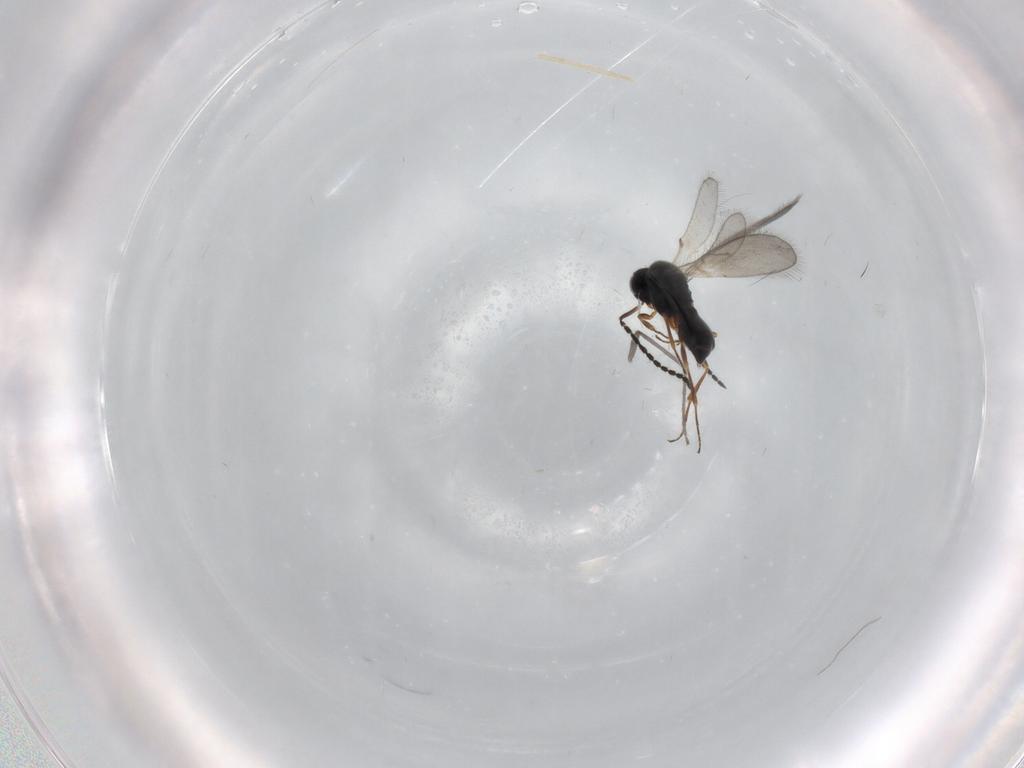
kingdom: Animalia
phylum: Arthropoda
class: Insecta
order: Hymenoptera
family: Scelionidae
